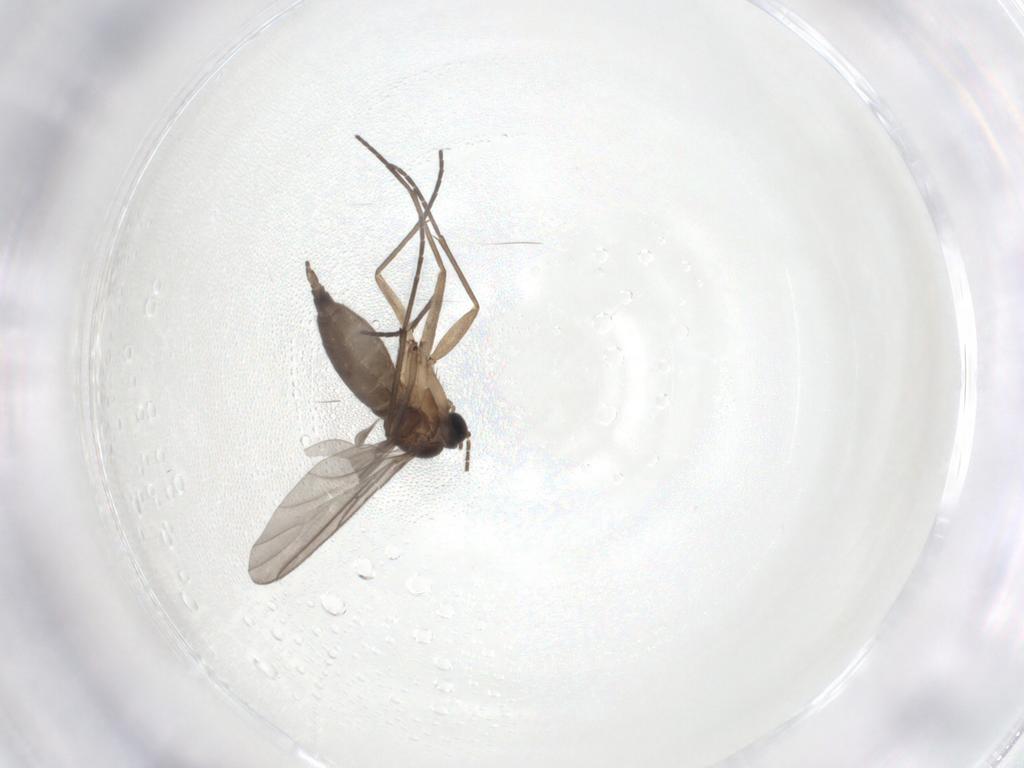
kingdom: Animalia
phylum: Arthropoda
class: Insecta
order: Diptera
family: Sciaridae
